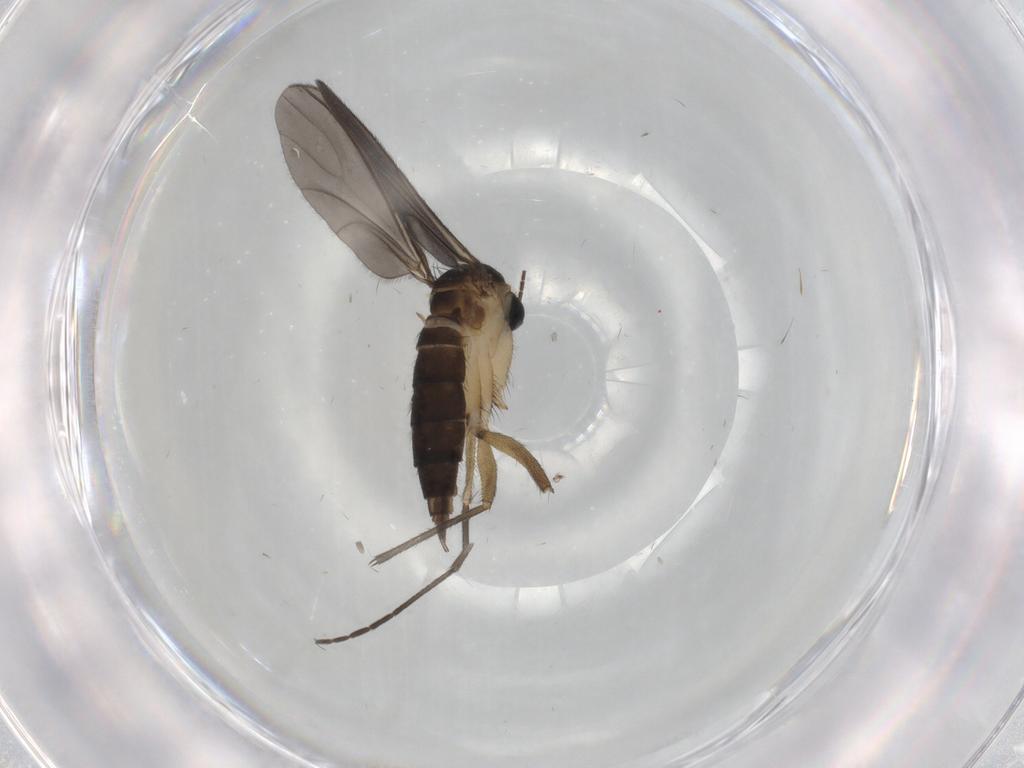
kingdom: Animalia
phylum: Arthropoda
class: Insecta
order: Diptera
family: Sciaridae
